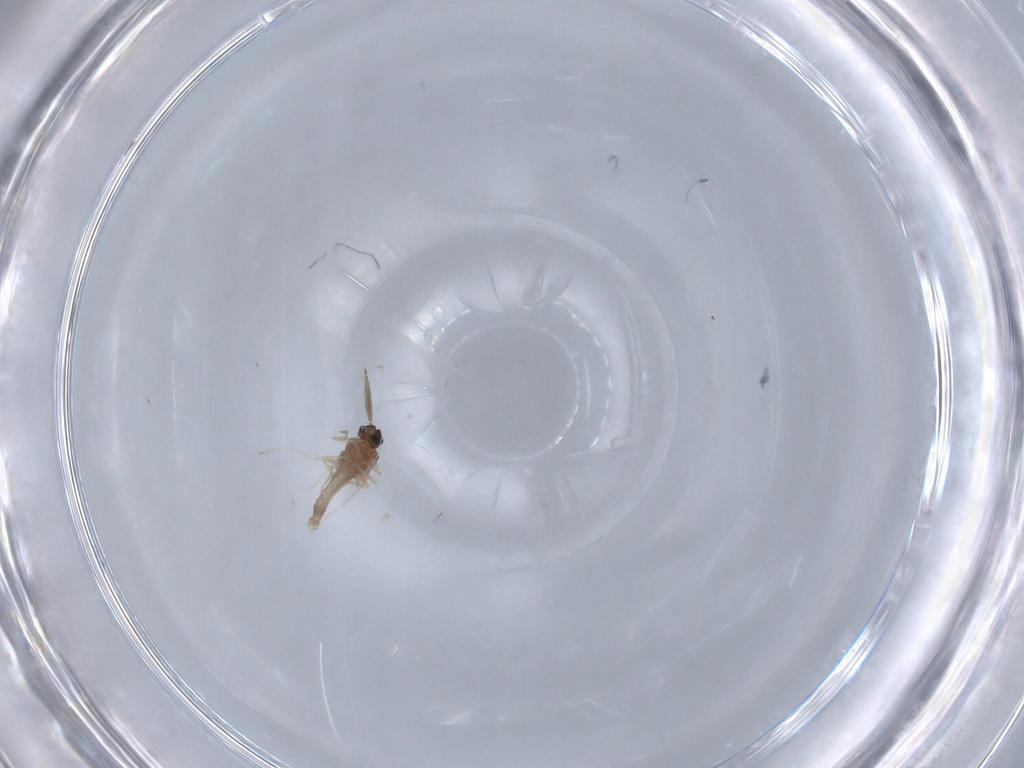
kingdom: Animalia
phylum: Arthropoda
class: Insecta
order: Diptera
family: Ceratopogonidae
